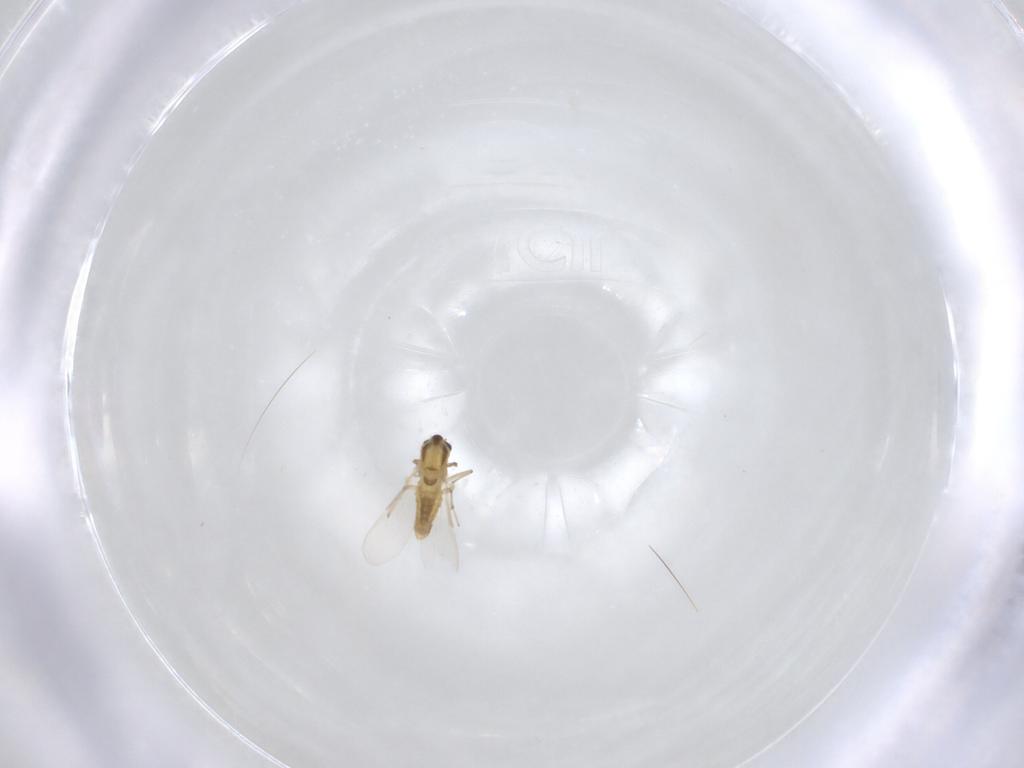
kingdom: Animalia
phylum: Arthropoda
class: Insecta
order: Diptera
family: Chironomidae
